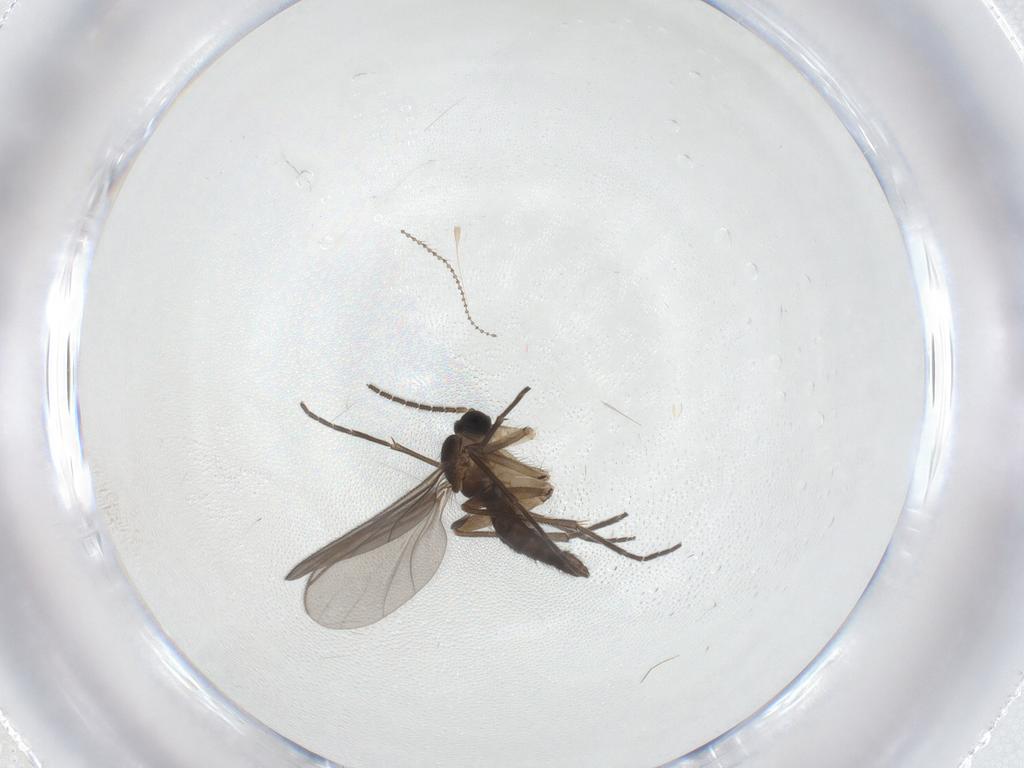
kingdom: Animalia
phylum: Arthropoda
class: Insecta
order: Diptera
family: Sciaridae
